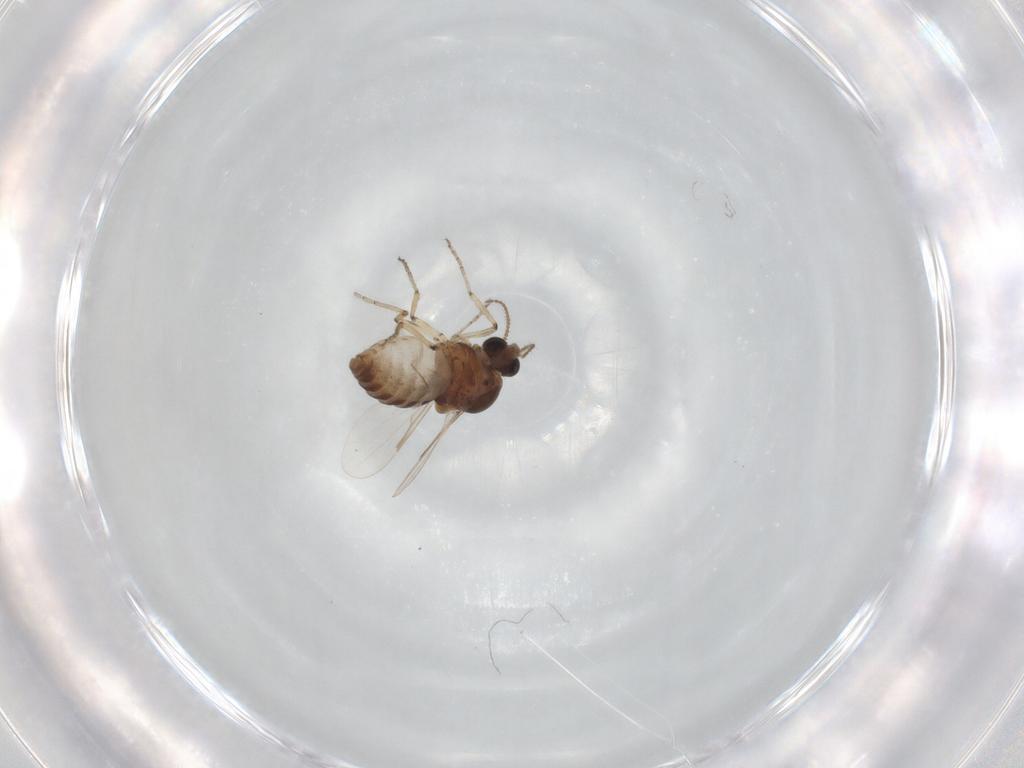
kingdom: Animalia
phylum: Arthropoda
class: Insecta
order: Diptera
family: Ceratopogonidae
